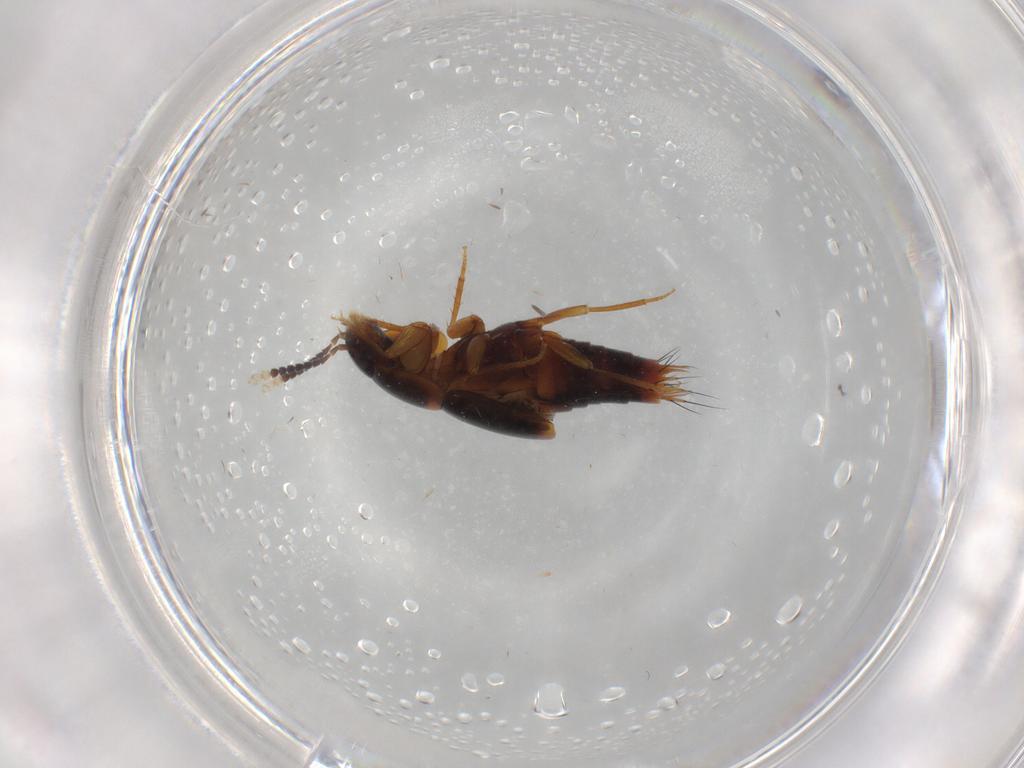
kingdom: Animalia
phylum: Arthropoda
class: Insecta
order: Coleoptera
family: Staphylinidae
